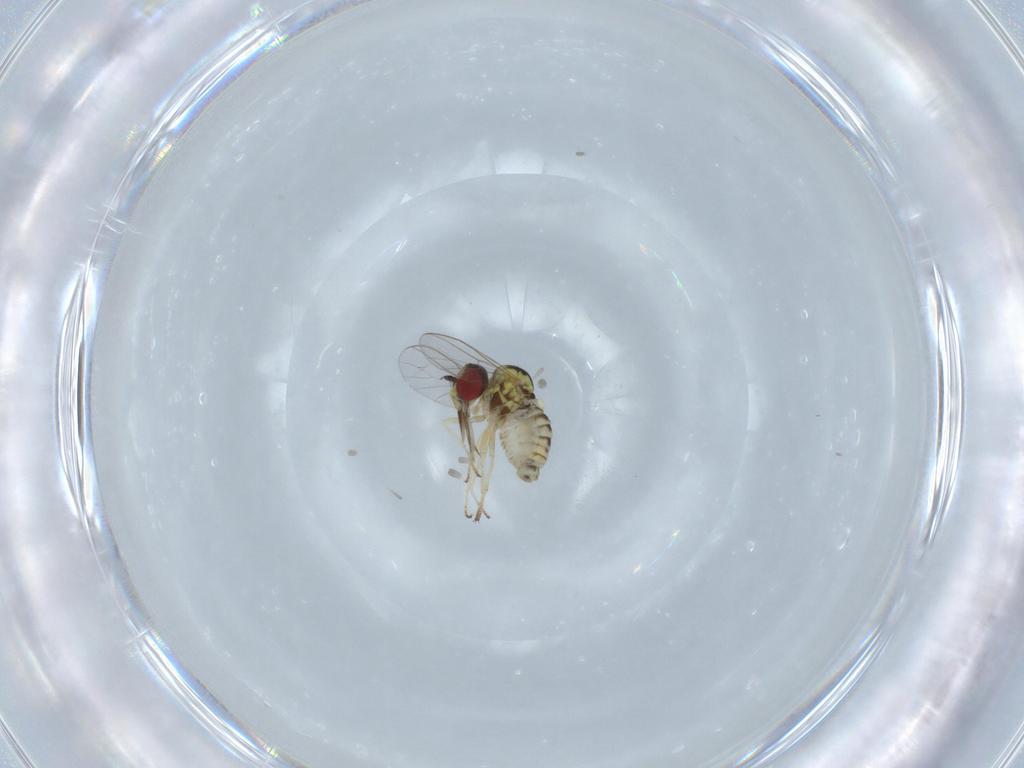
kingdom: Animalia
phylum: Arthropoda
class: Insecta
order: Diptera
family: Bombyliidae
